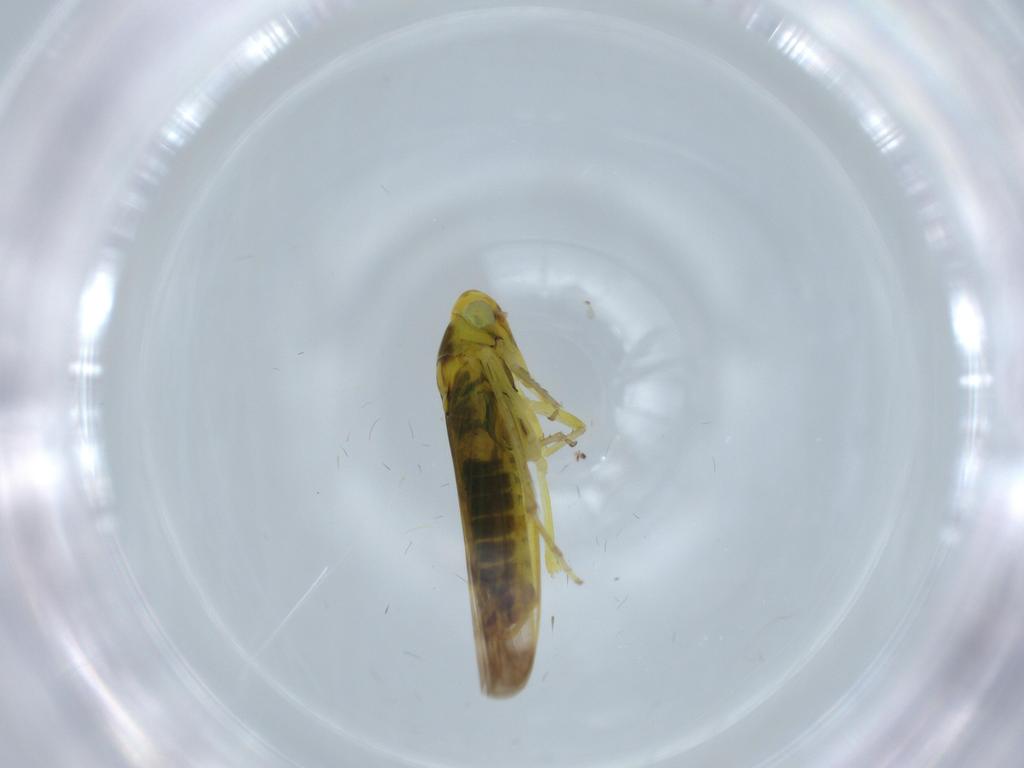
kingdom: Animalia
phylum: Arthropoda
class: Insecta
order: Hemiptera
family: Cicadellidae
